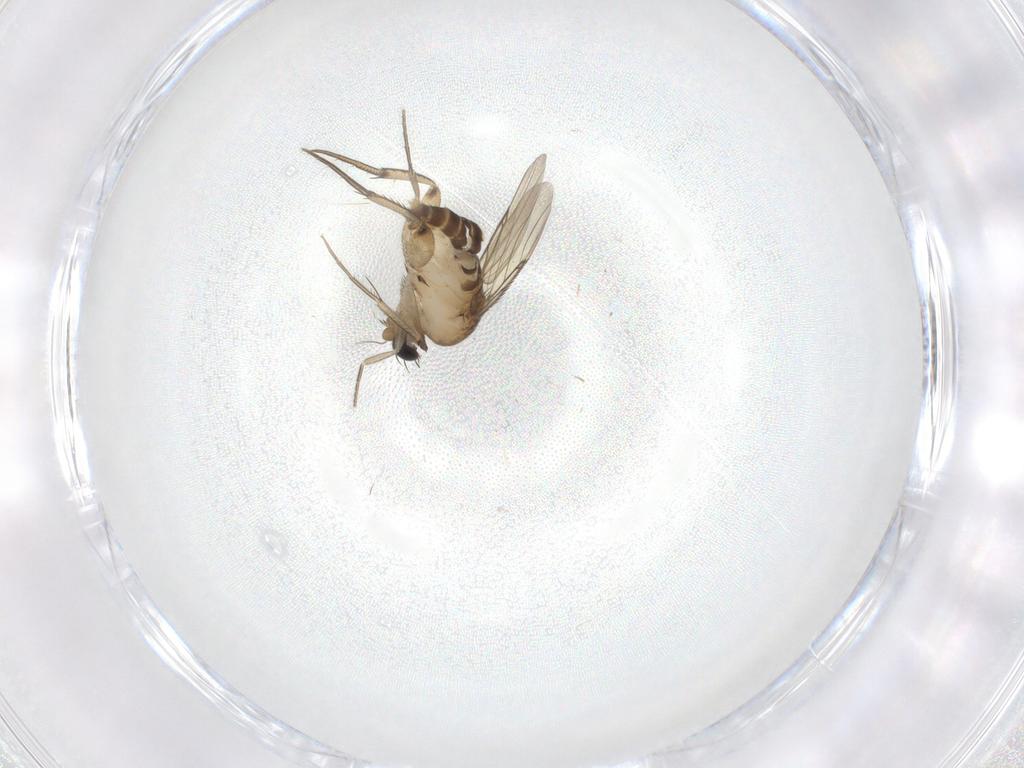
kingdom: Animalia
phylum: Arthropoda
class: Insecta
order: Diptera
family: Phoridae
